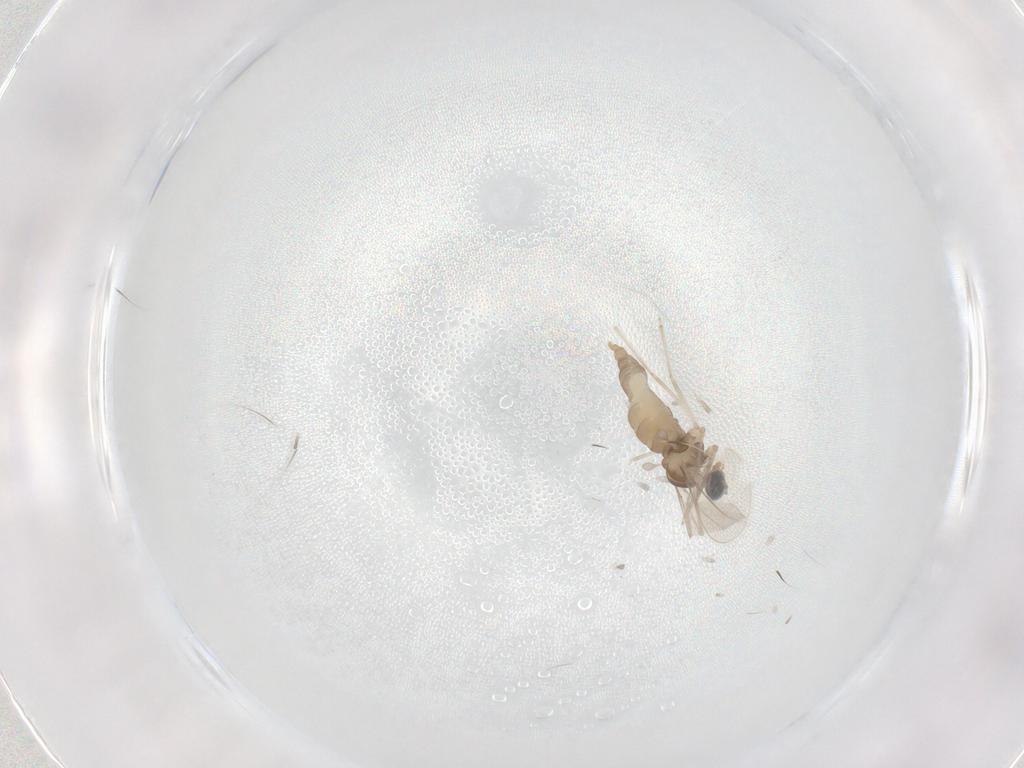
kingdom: Animalia
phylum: Arthropoda
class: Insecta
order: Diptera
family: Cecidomyiidae
